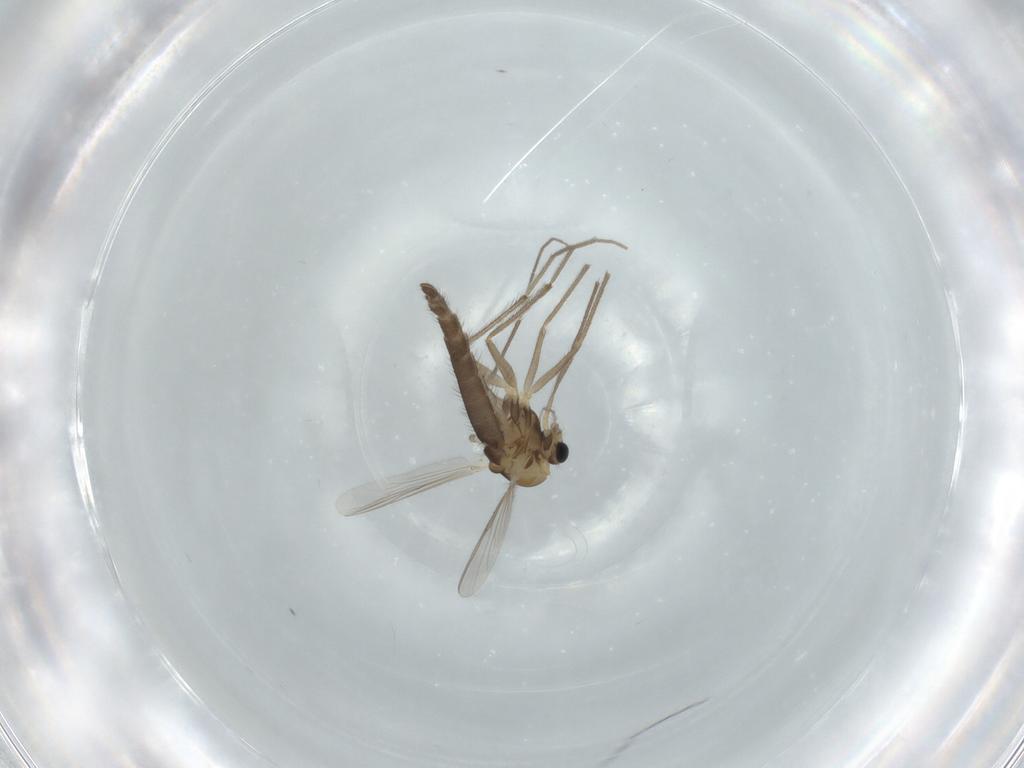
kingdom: Animalia
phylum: Arthropoda
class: Insecta
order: Diptera
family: Chironomidae
